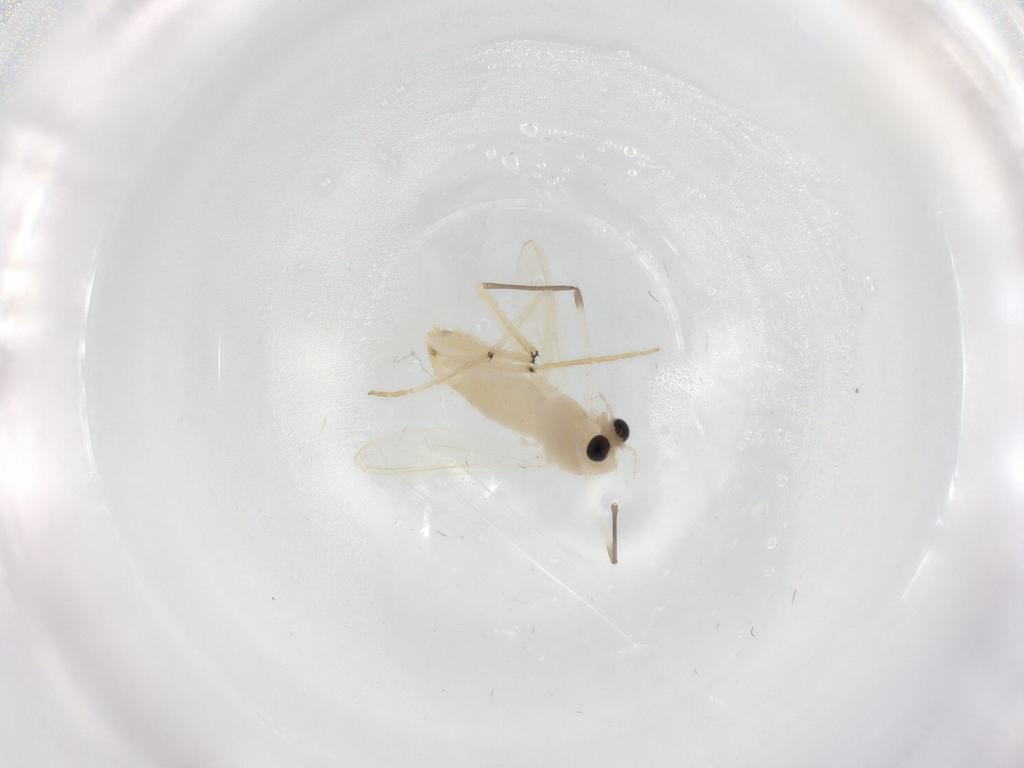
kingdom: Animalia
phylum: Arthropoda
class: Insecta
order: Diptera
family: Chironomidae
